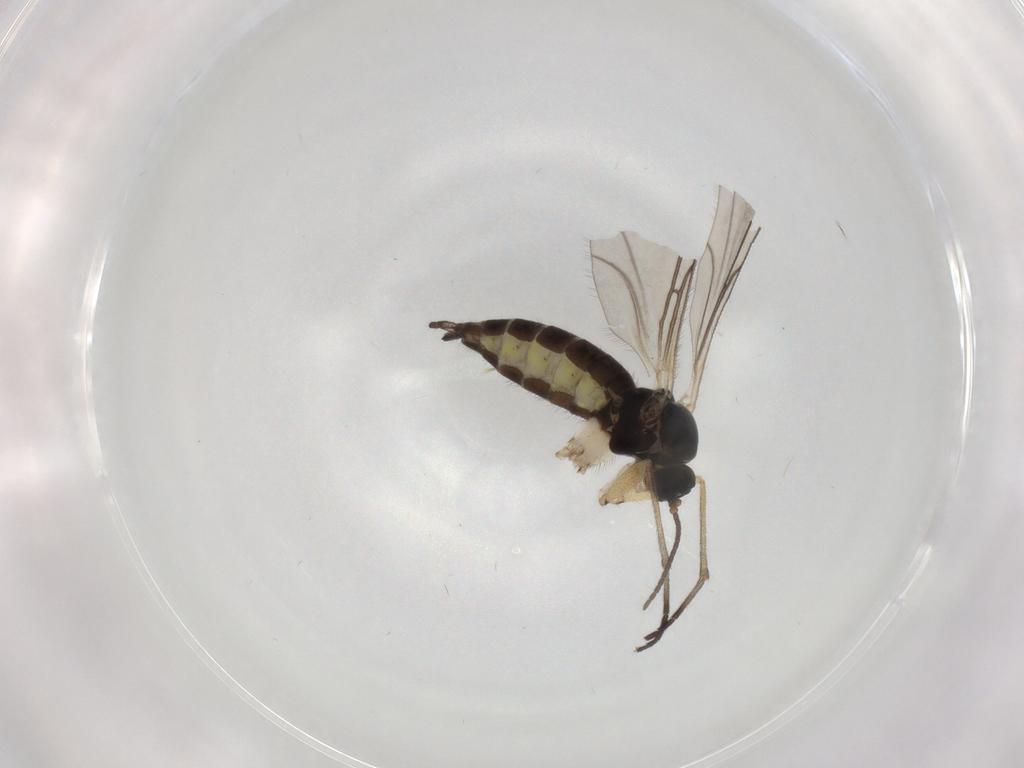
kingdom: Animalia
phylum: Arthropoda
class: Insecta
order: Diptera
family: Sciaridae
